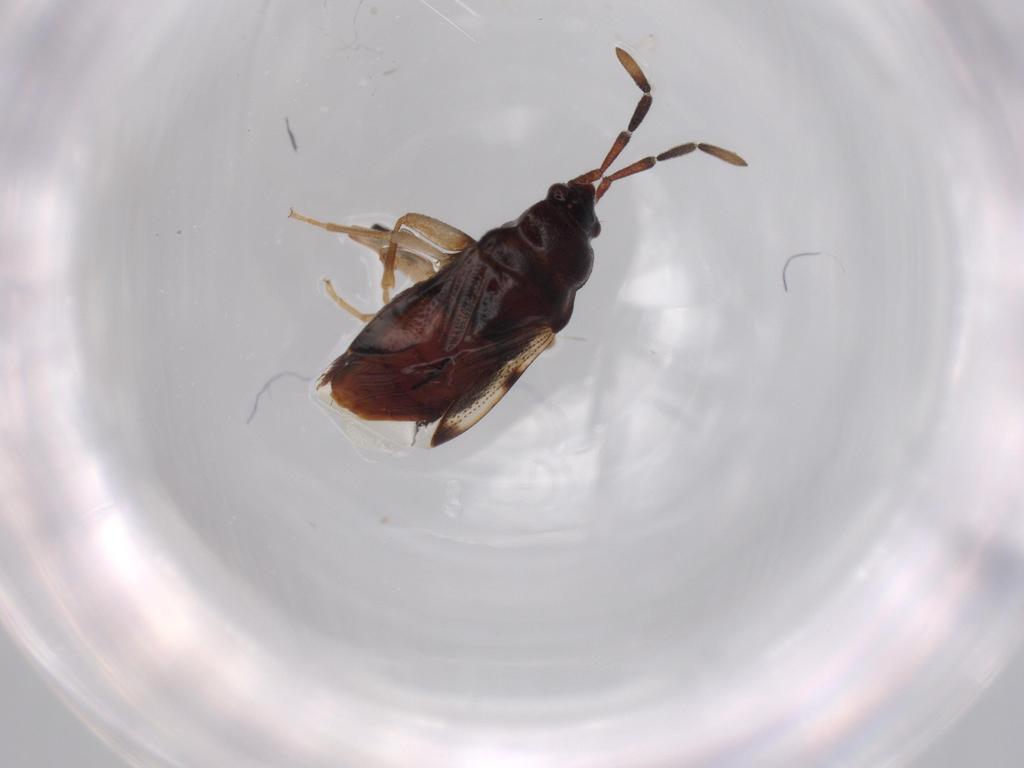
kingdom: Animalia
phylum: Arthropoda
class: Insecta
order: Hemiptera
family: Rhyparochromidae
